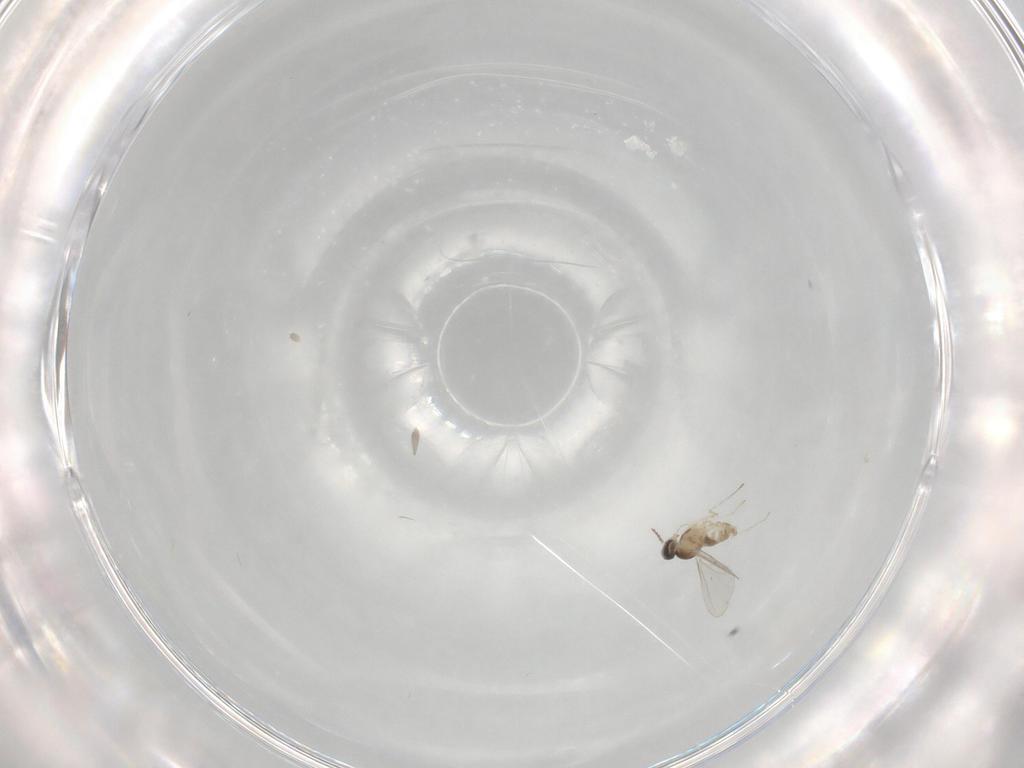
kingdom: Animalia
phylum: Arthropoda
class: Insecta
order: Diptera
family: Cecidomyiidae
